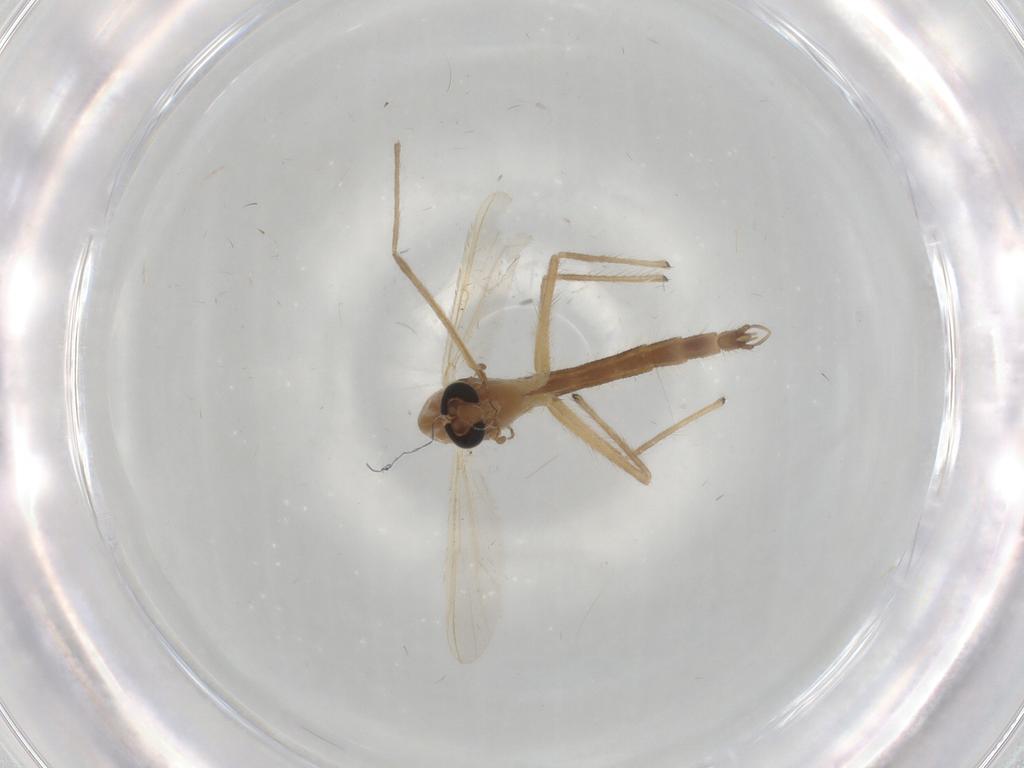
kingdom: Animalia
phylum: Arthropoda
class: Insecta
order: Diptera
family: Chironomidae
